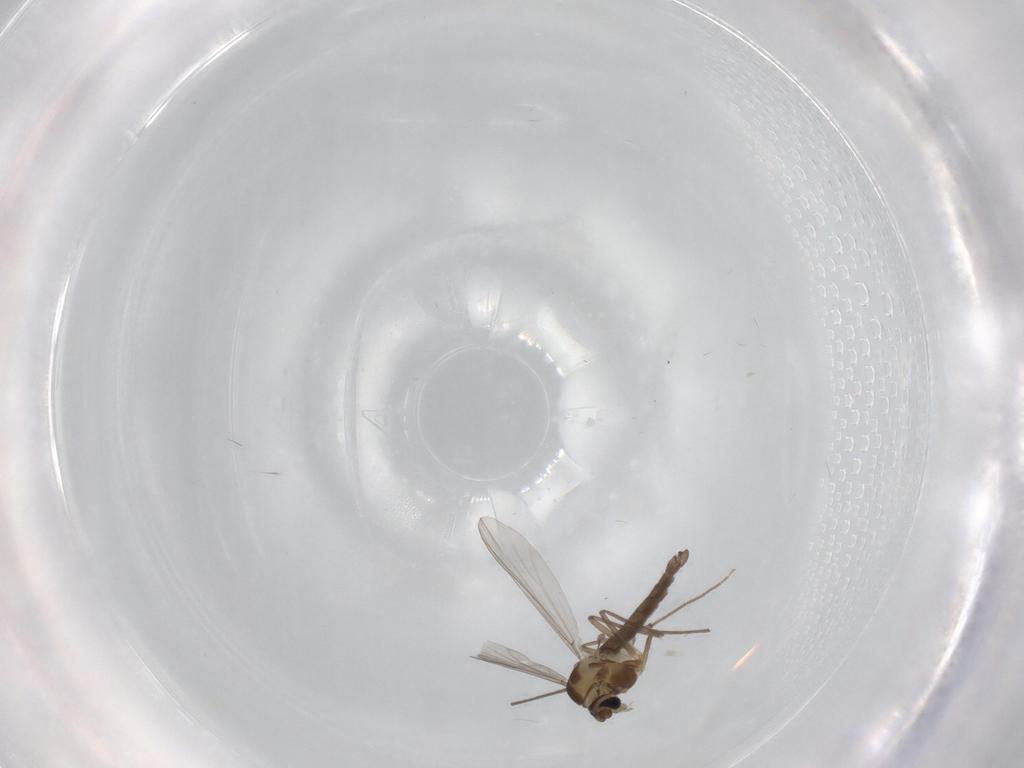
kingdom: Animalia
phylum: Arthropoda
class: Insecta
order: Diptera
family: Chironomidae
